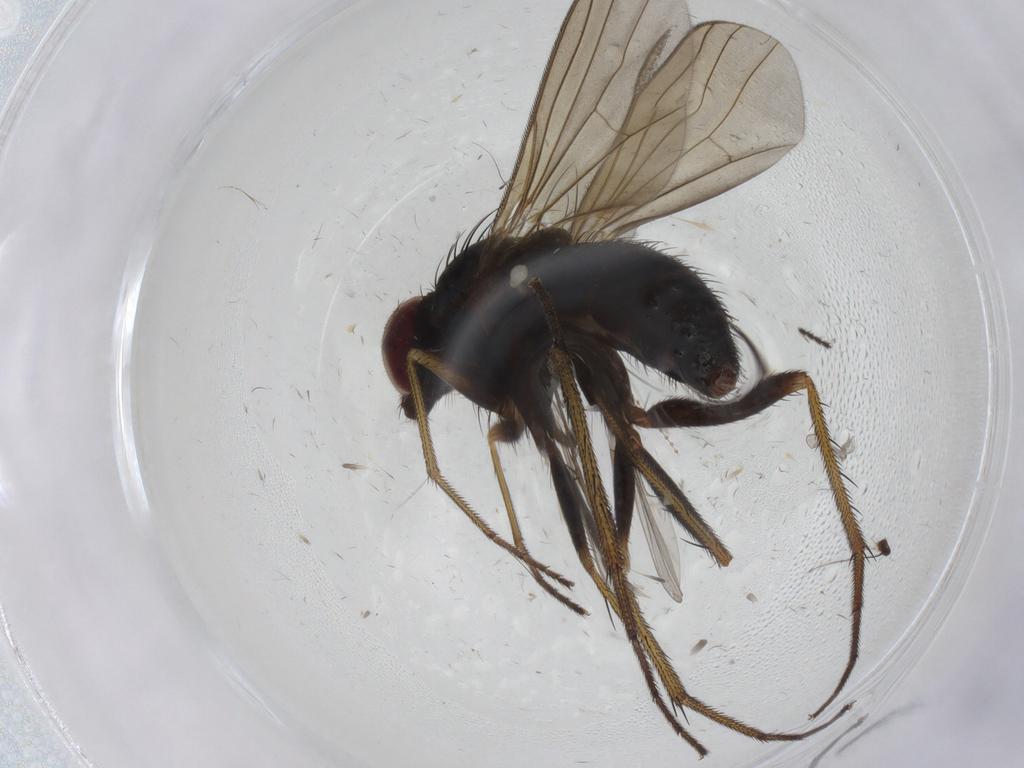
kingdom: Animalia
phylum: Arthropoda
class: Insecta
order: Diptera
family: Dolichopodidae
